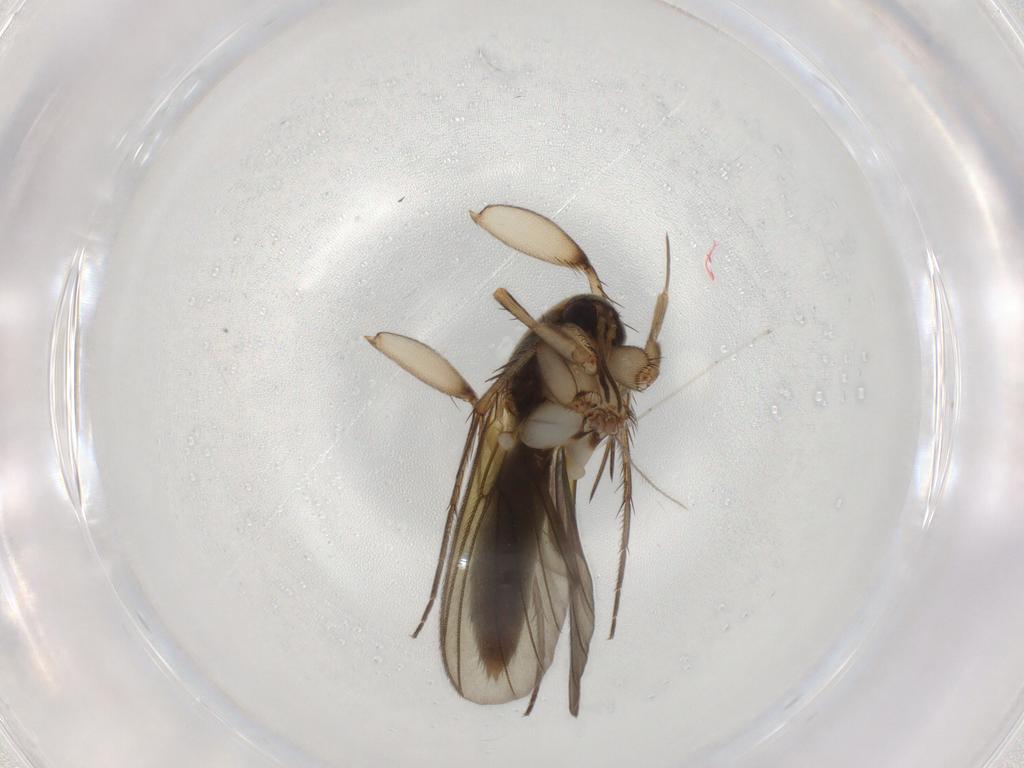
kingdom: Animalia
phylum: Arthropoda
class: Insecta
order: Diptera
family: Mycetophilidae
